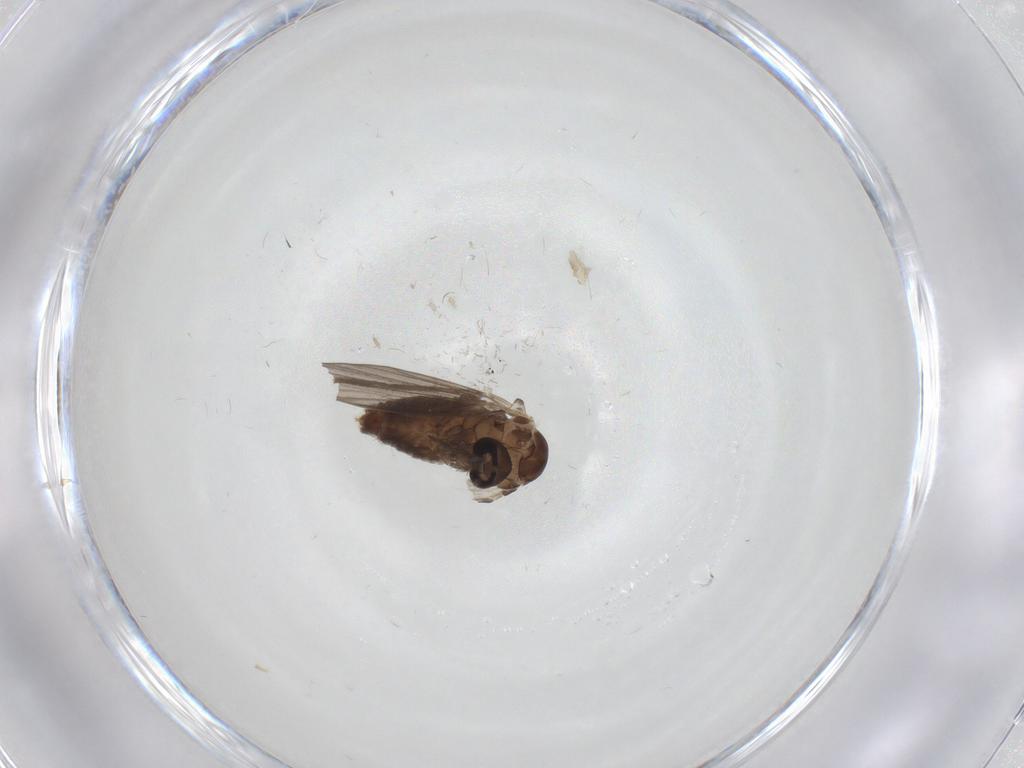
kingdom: Animalia
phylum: Arthropoda
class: Insecta
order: Diptera
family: Psychodidae
